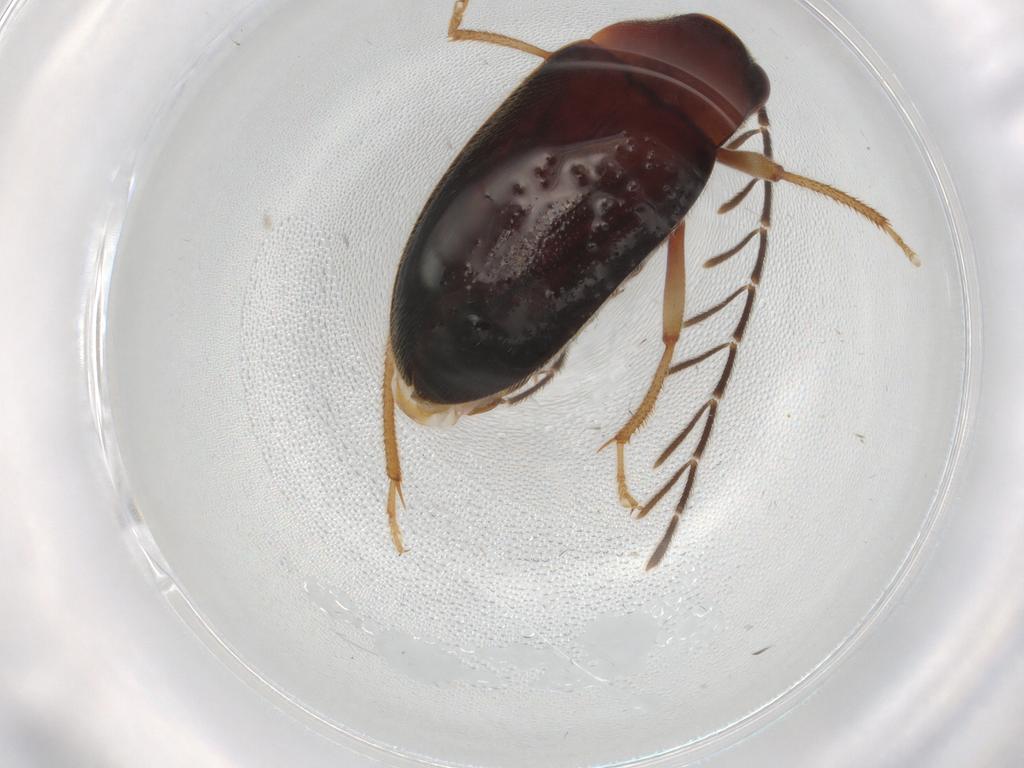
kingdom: Animalia
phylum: Arthropoda
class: Insecta
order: Coleoptera
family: Ptilodactylidae
